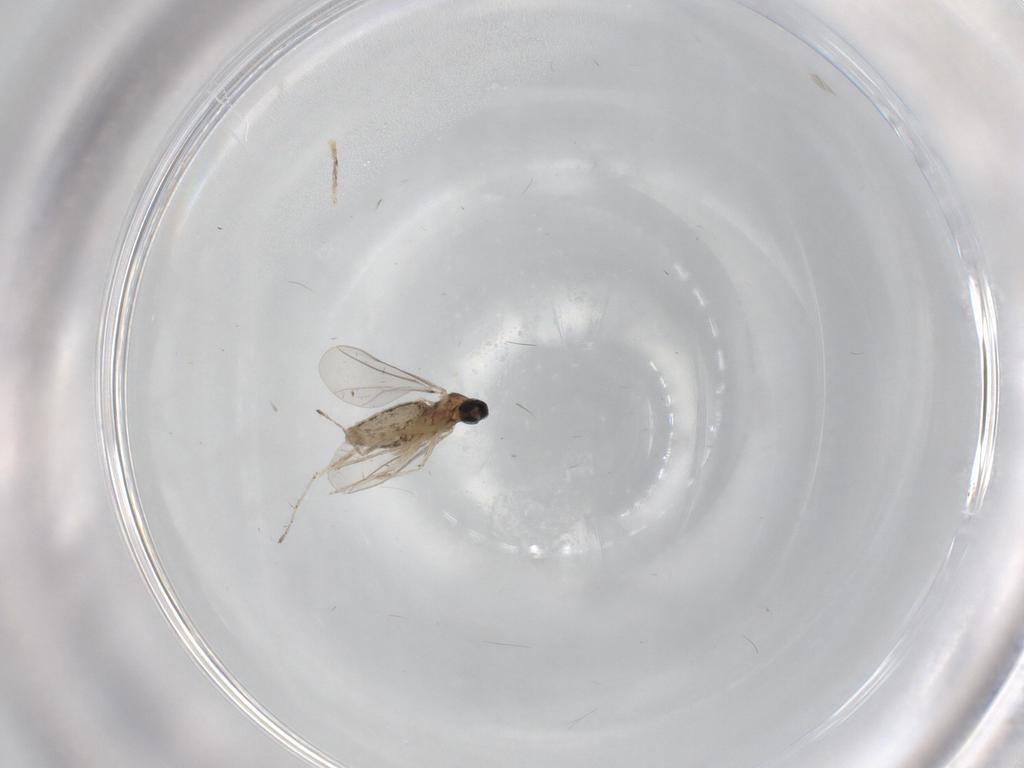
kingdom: Animalia
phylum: Arthropoda
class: Insecta
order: Diptera
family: Cecidomyiidae
